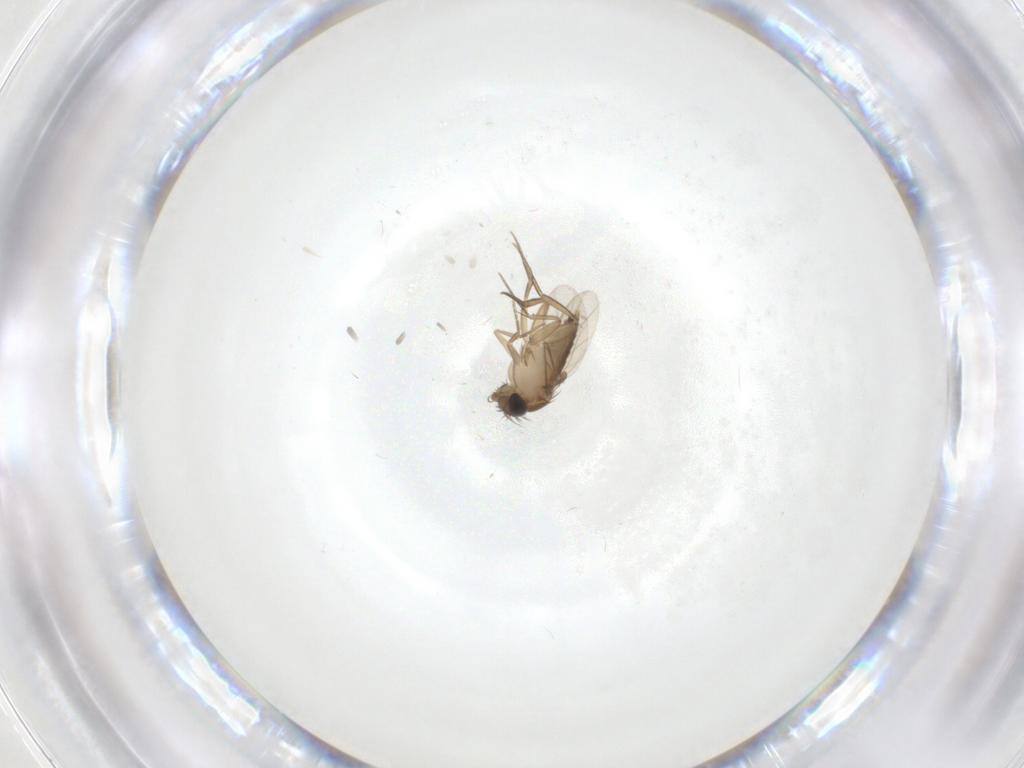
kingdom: Animalia
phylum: Arthropoda
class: Insecta
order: Diptera
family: Phoridae
